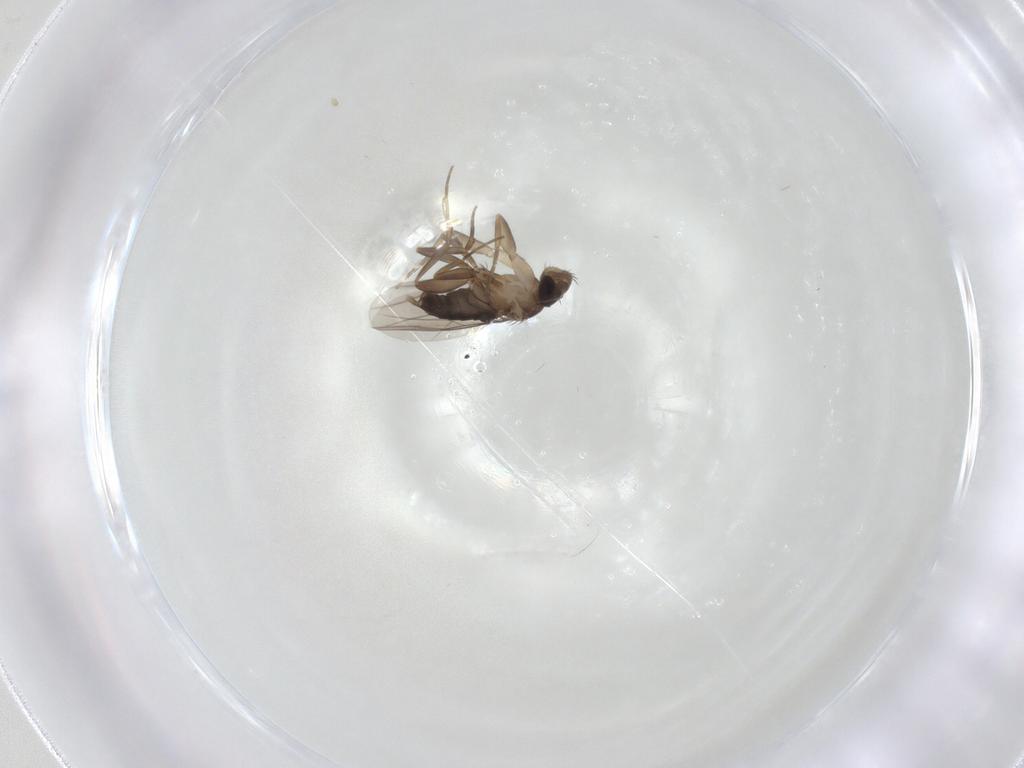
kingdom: Animalia
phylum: Arthropoda
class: Insecta
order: Diptera
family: Phoridae
